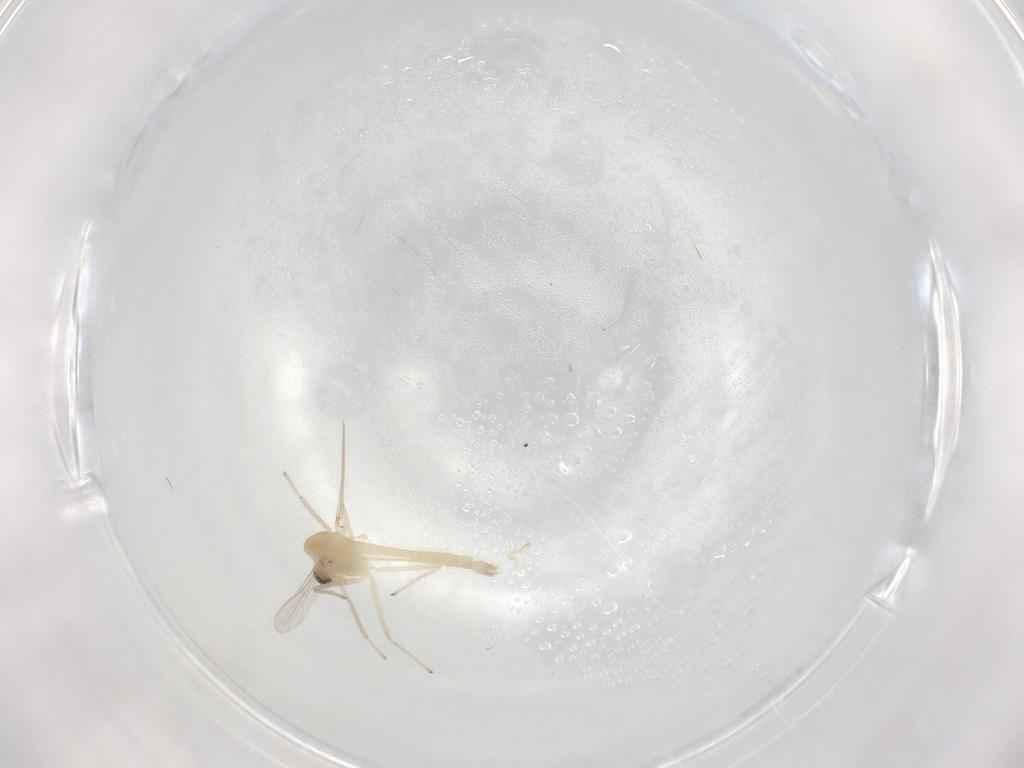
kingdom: Animalia
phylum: Arthropoda
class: Insecta
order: Diptera
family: Chironomidae
